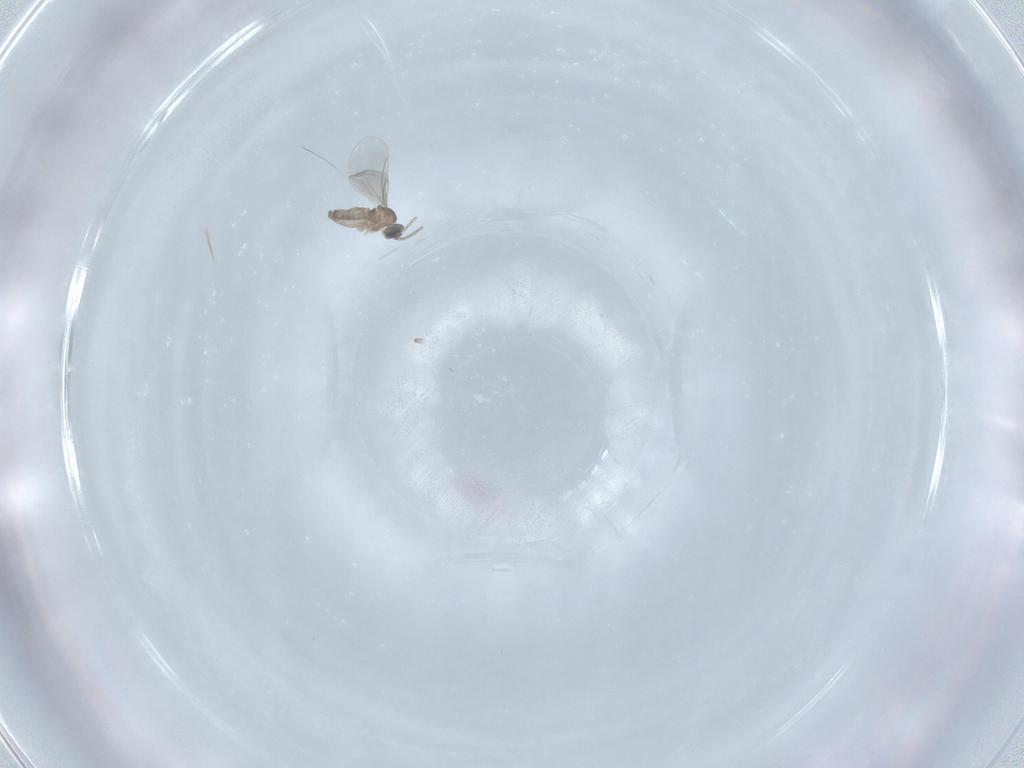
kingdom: Animalia
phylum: Arthropoda
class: Insecta
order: Diptera
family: Cecidomyiidae
